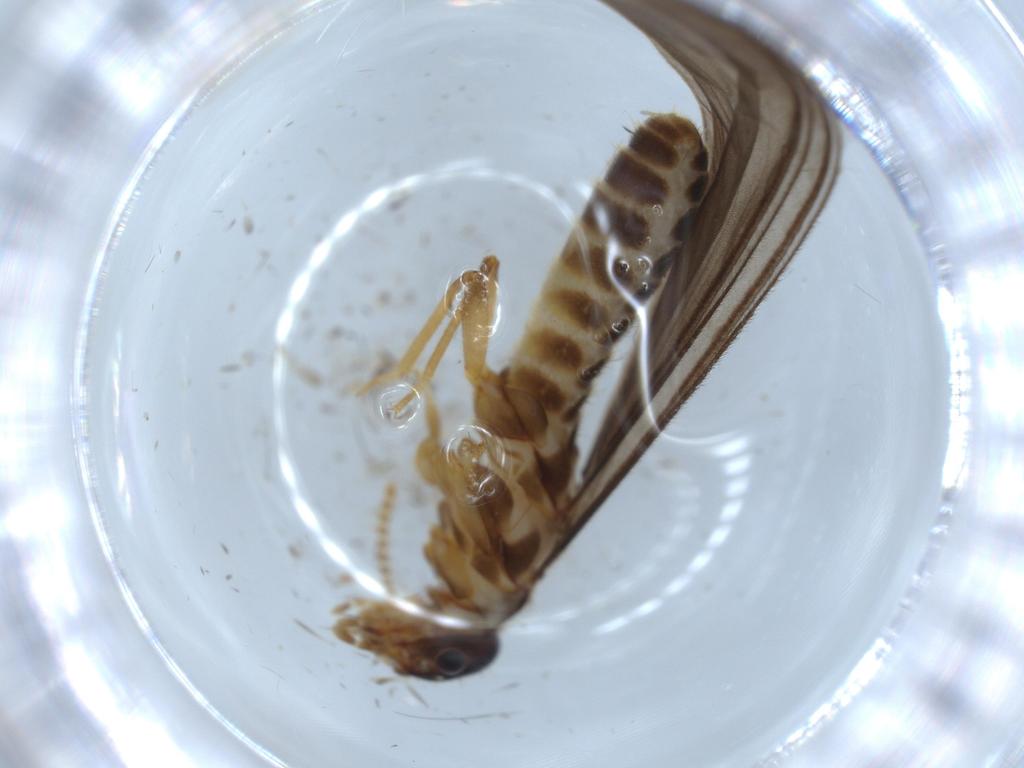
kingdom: Animalia
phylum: Arthropoda
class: Insecta
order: Blattodea
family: Termitidae
